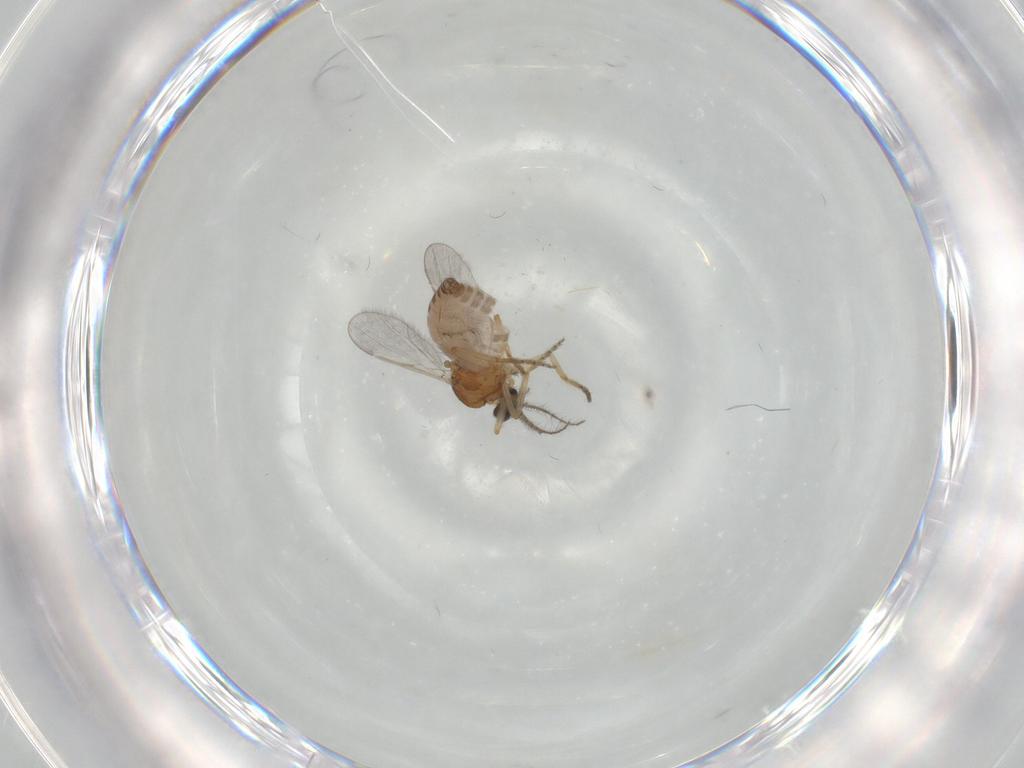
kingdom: Animalia
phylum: Arthropoda
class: Insecta
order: Diptera
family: Ceratopogonidae
